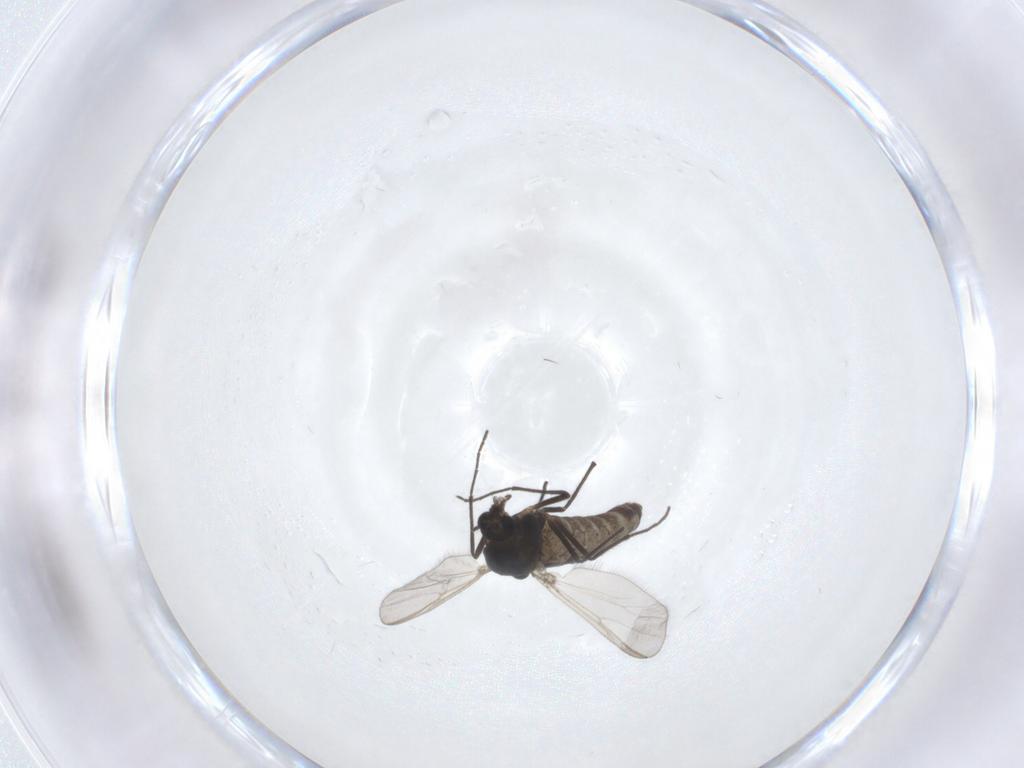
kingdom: Animalia
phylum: Arthropoda
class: Insecta
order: Diptera
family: Chironomidae
